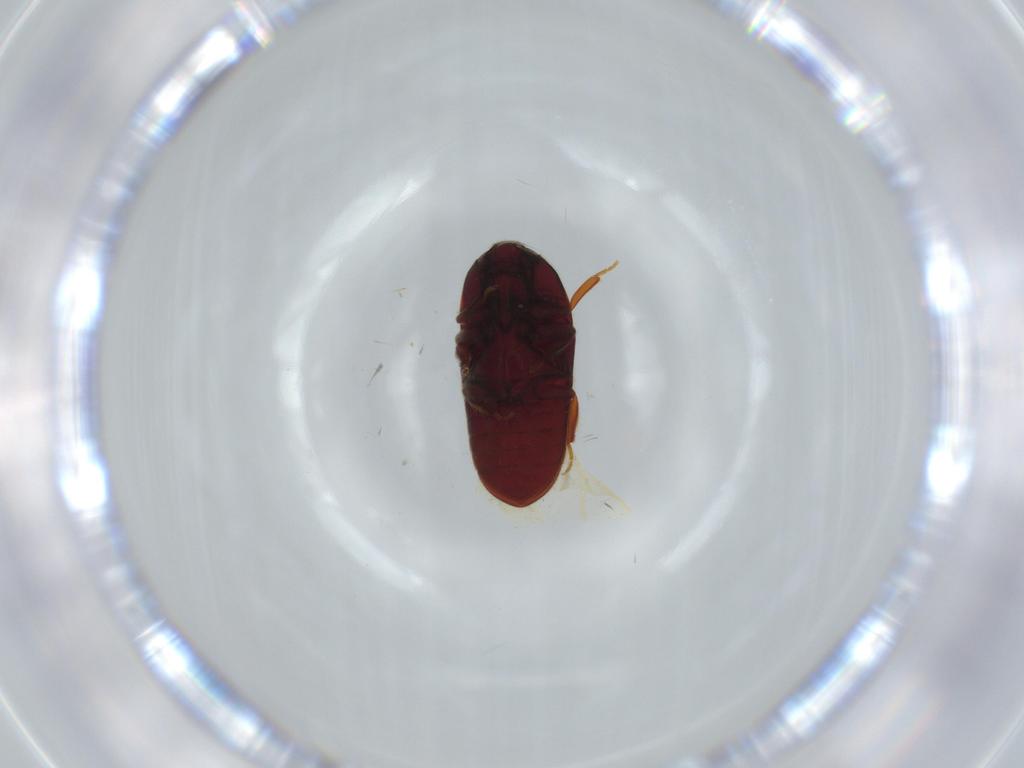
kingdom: Animalia
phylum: Arthropoda
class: Insecta
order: Coleoptera
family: Throscidae
